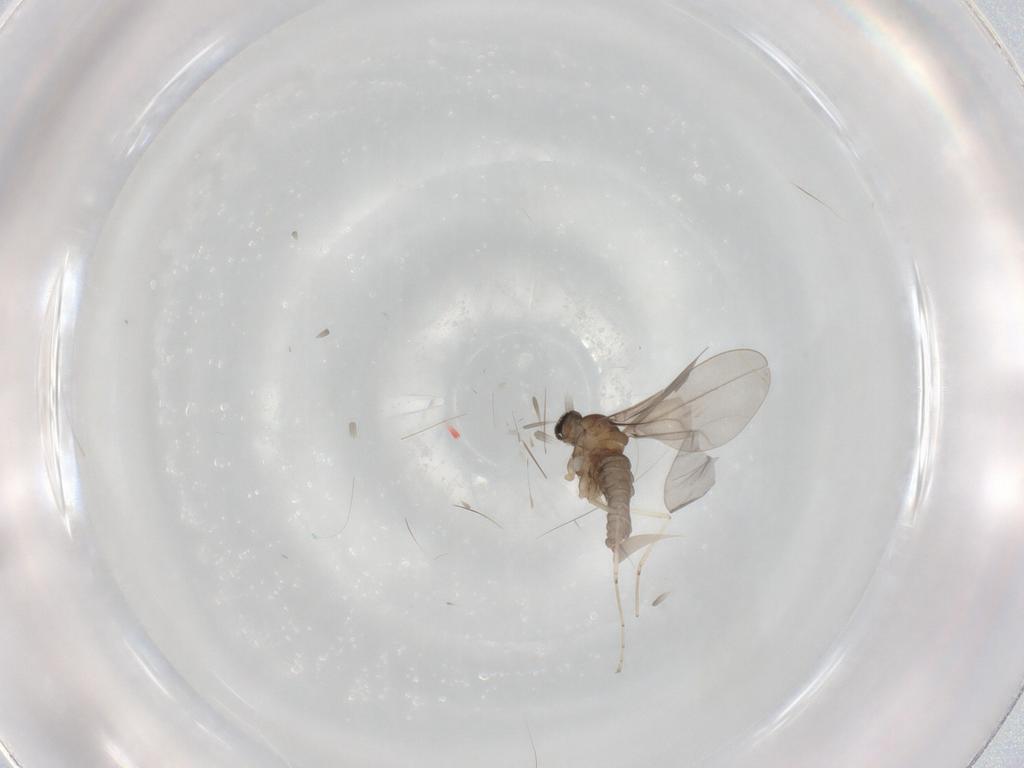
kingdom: Animalia
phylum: Arthropoda
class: Insecta
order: Diptera
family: Cecidomyiidae
